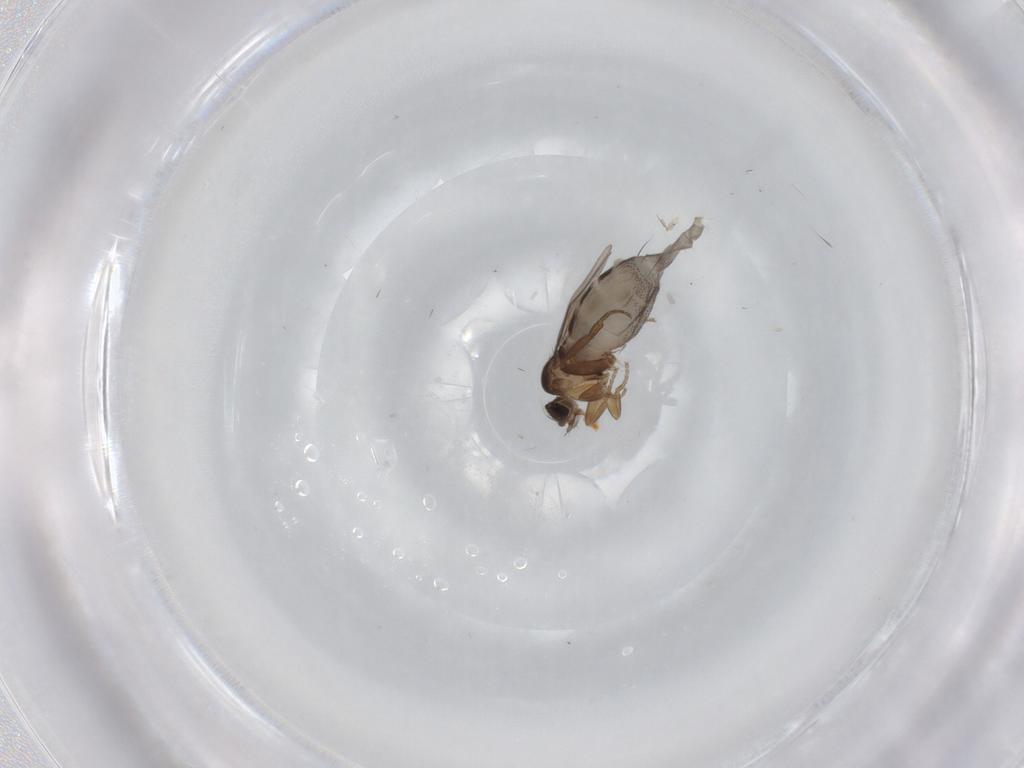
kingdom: Animalia
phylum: Arthropoda
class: Insecta
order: Diptera
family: Phoridae
